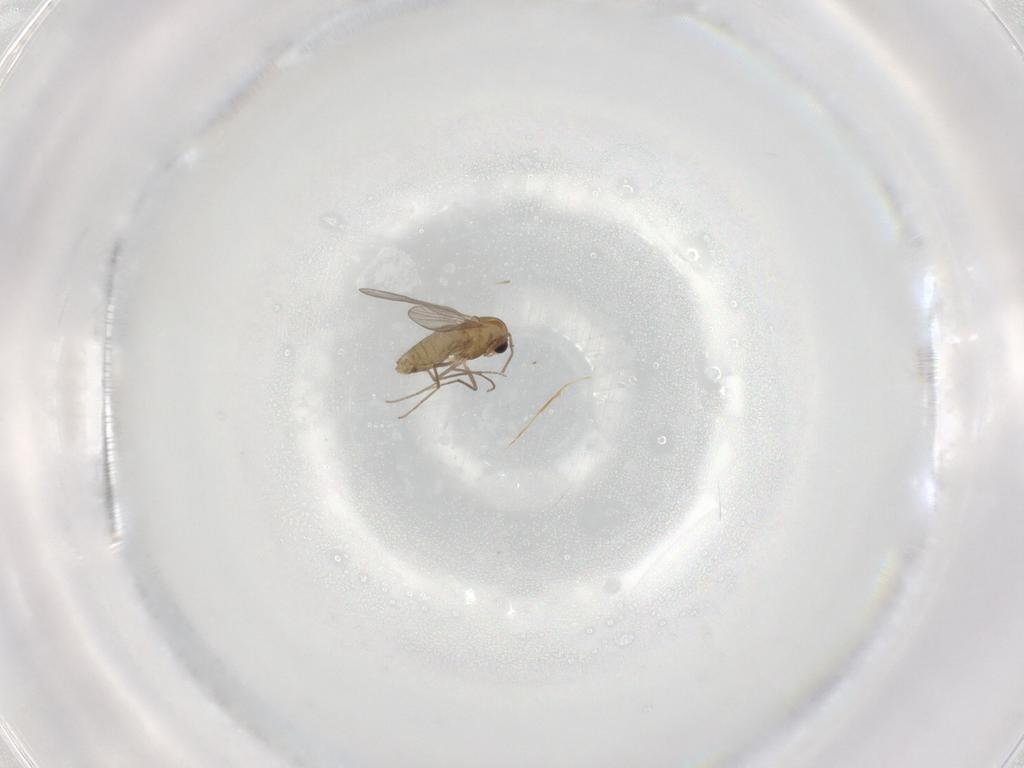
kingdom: Animalia
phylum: Arthropoda
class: Insecta
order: Diptera
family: Chironomidae
